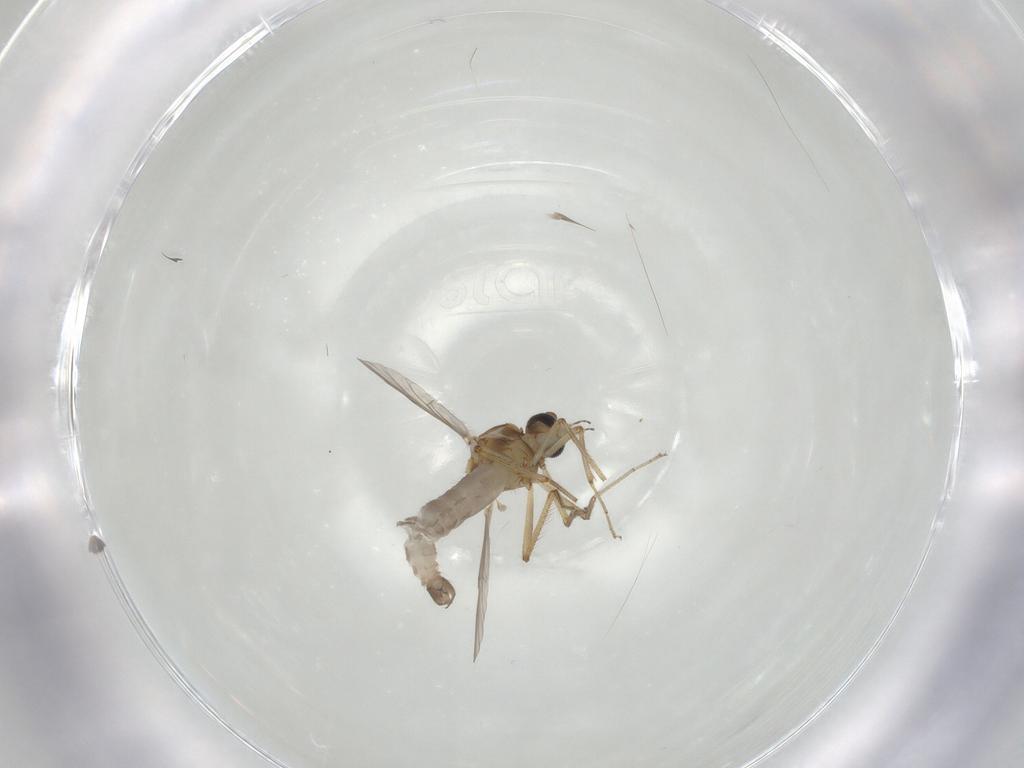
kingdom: Animalia
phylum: Arthropoda
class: Insecta
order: Diptera
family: Ceratopogonidae
